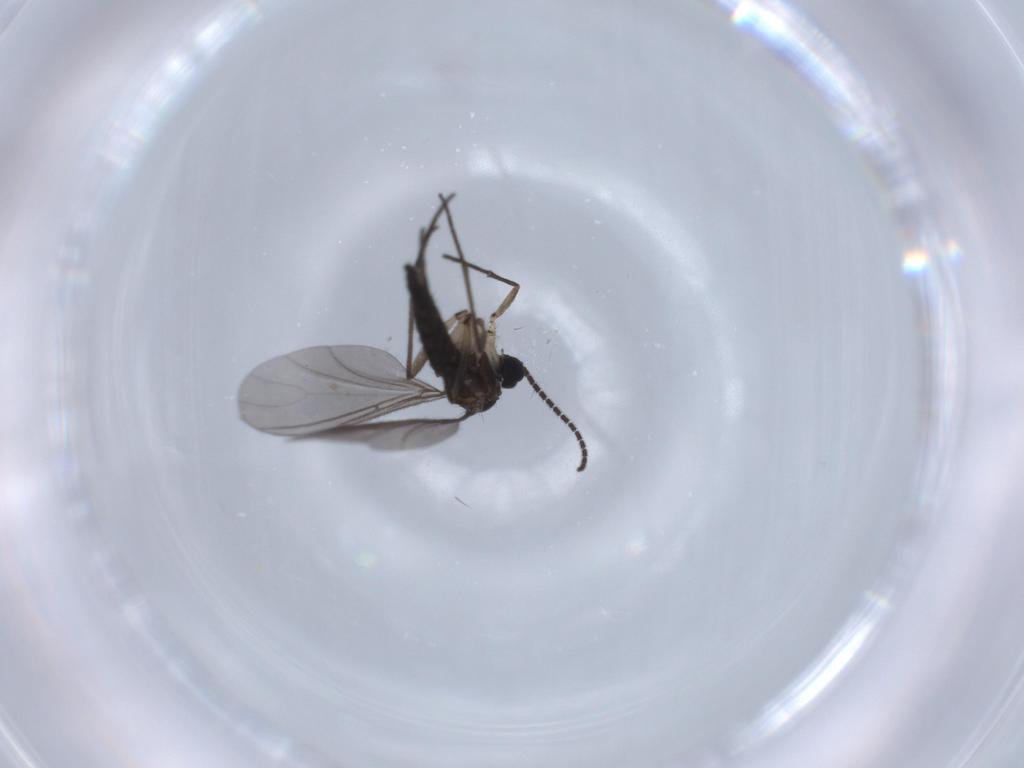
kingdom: Animalia
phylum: Arthropoda
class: Insecta
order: Diptera
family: Sciaridae
